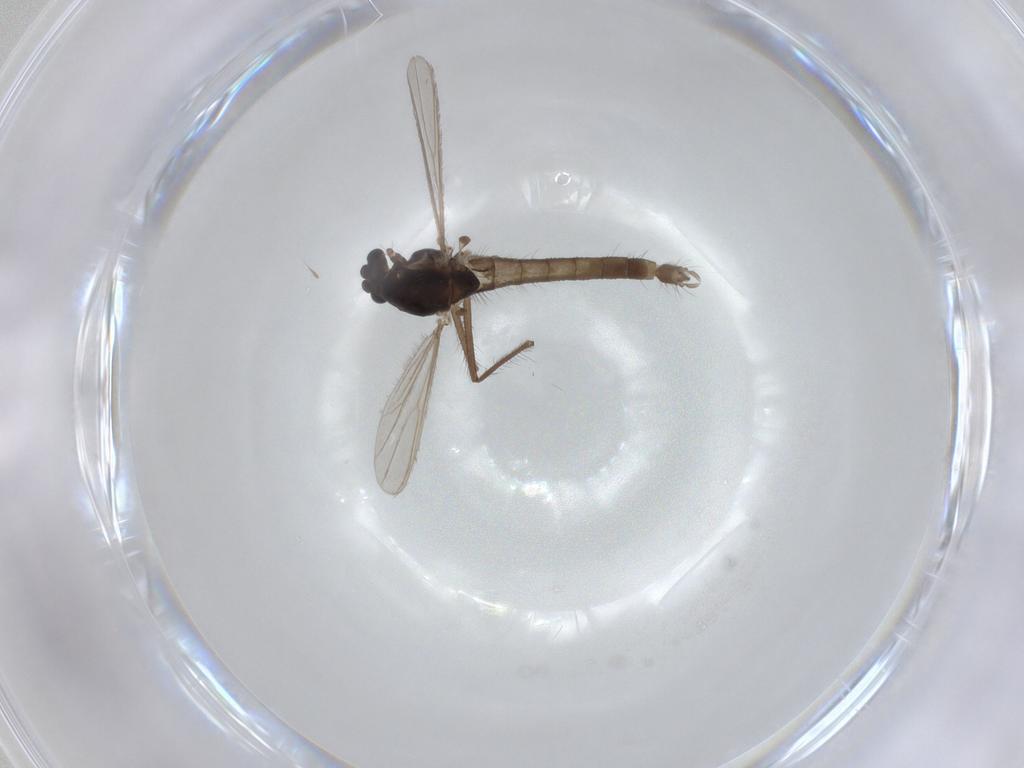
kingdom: Animalia
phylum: Arthropoda
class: Insecta
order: Diptera
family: Chironomidae
